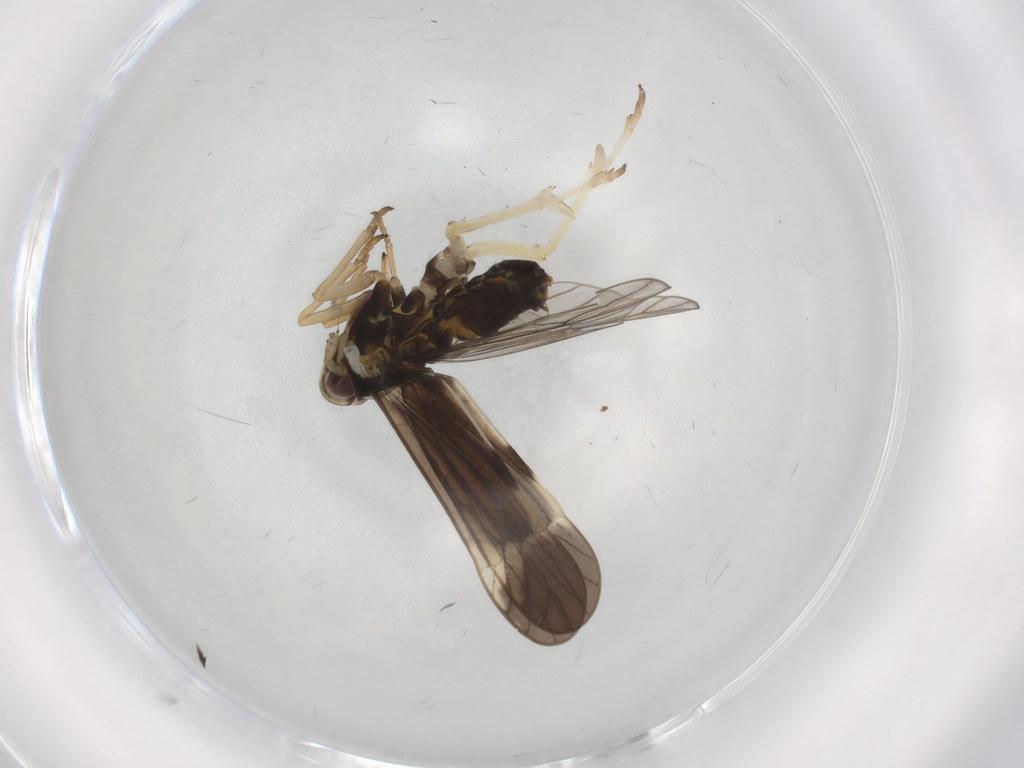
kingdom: Animalia
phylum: Arthropoda
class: Insecta
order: Hemiptera
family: Delphacidae
